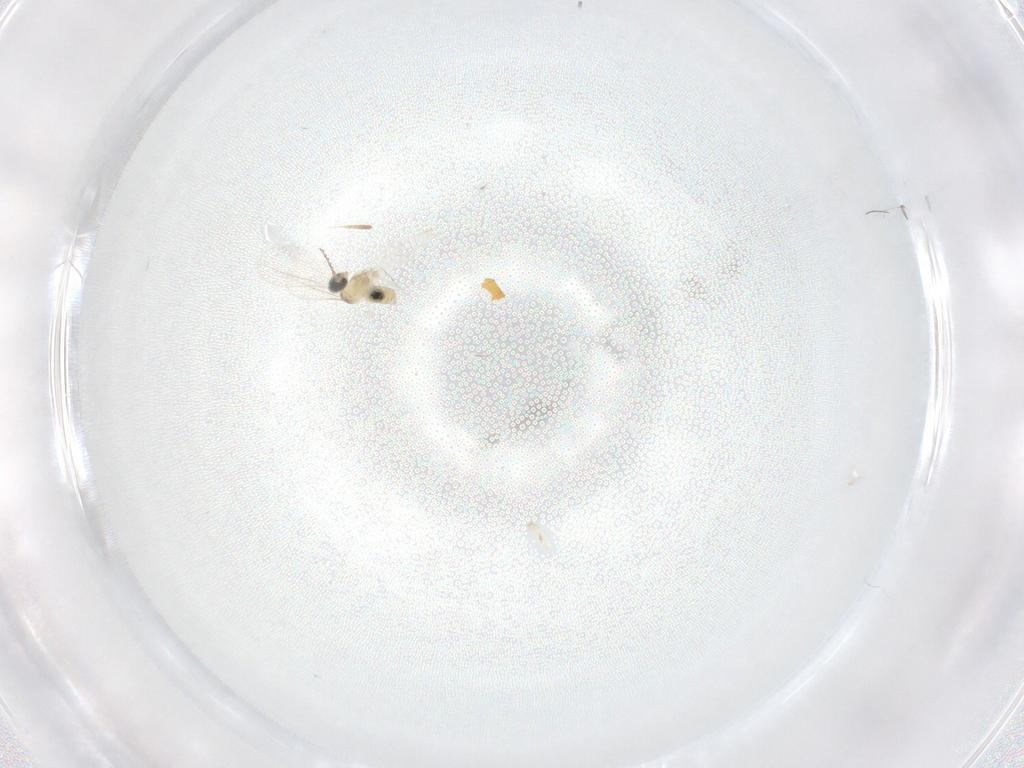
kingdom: Animalia
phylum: Arthropoda
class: Insecta
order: Diptera
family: Cecidomyiidae
